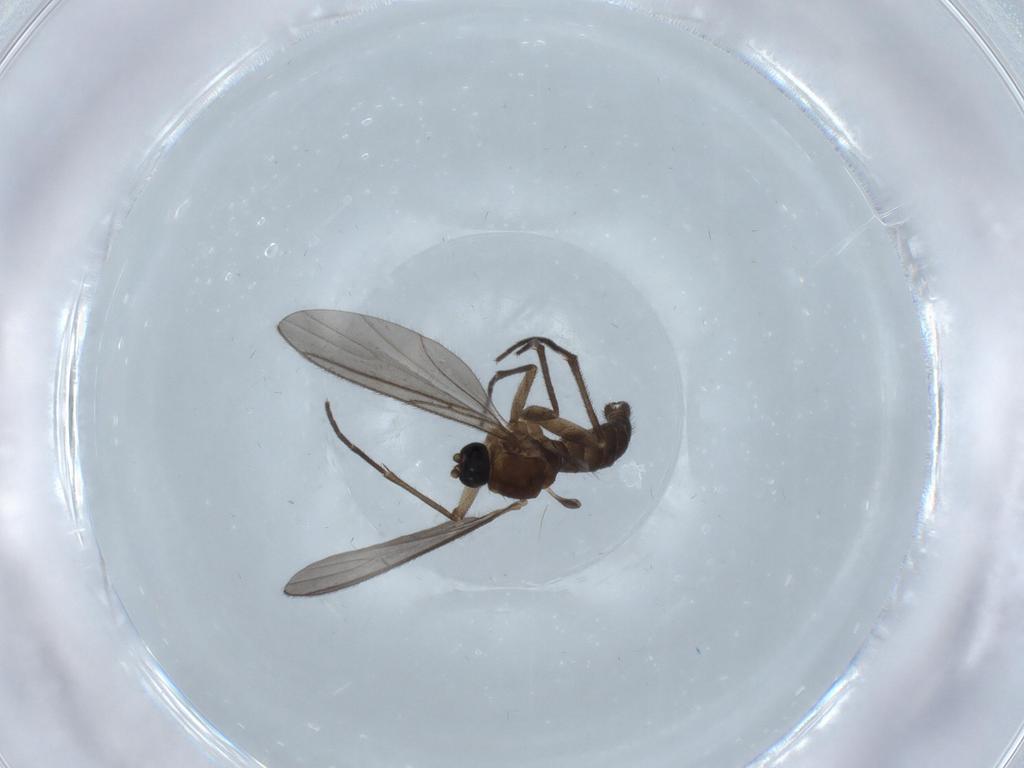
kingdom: Animalia
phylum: Arthropoda
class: Insecta
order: Diptera
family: Sciaridae
